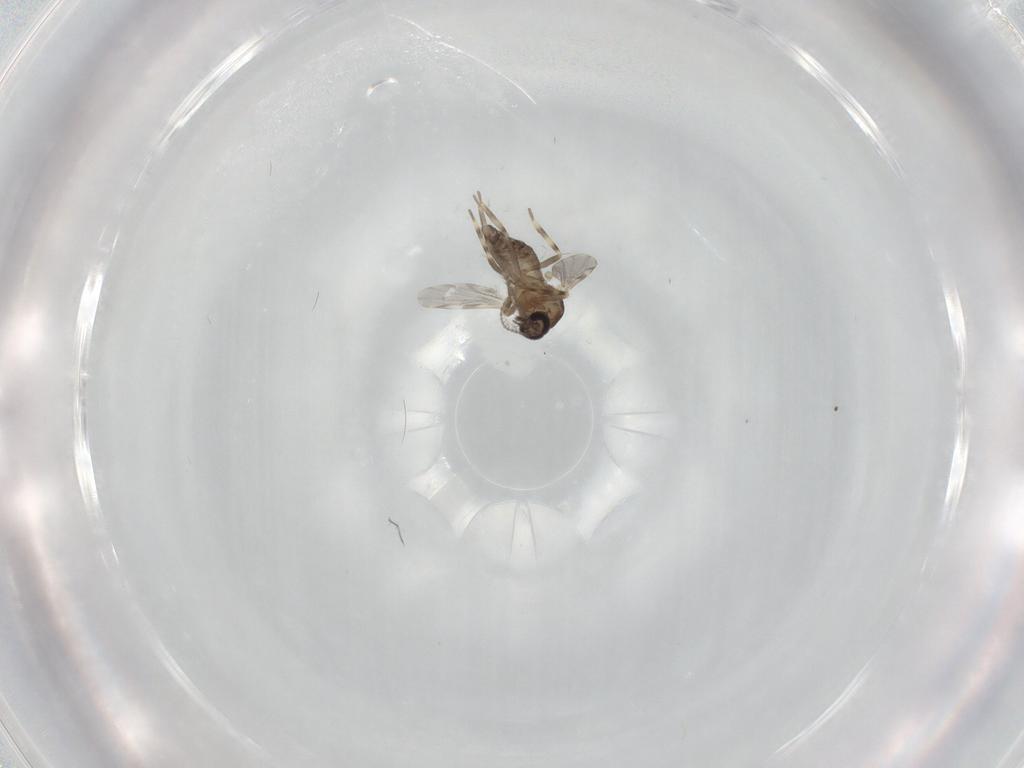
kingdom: Animalia
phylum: Arthropoda
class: Insecta
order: Diptera
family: Ceratopogonidae
